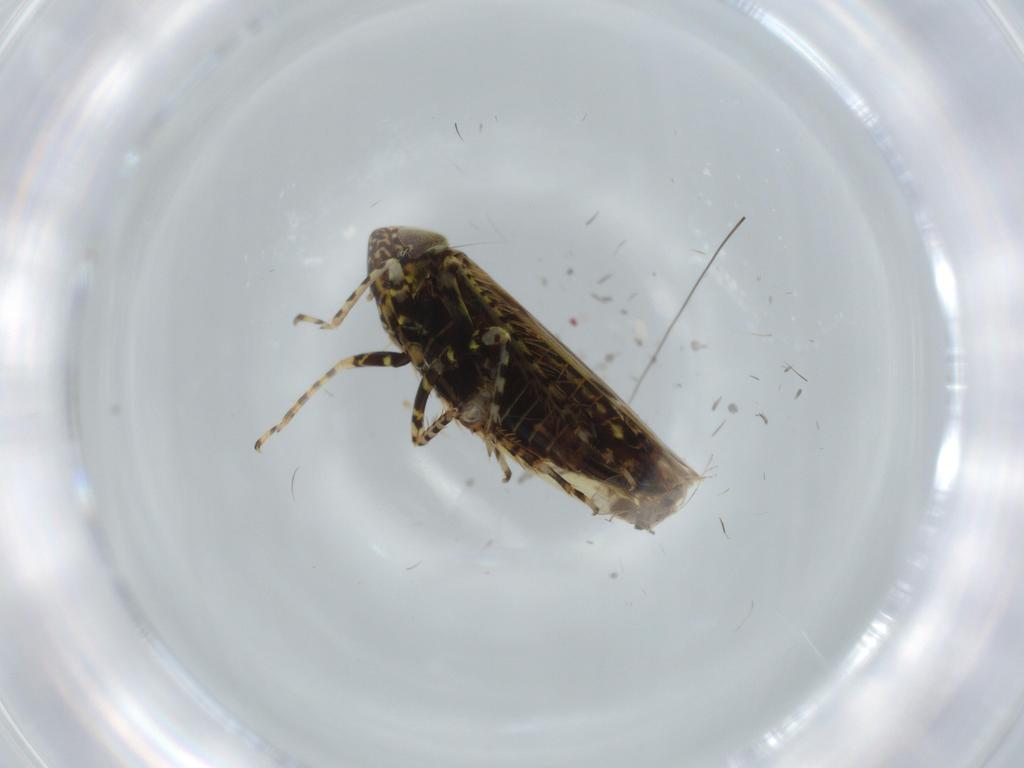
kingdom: Animalia
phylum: Arthropoda
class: Insecta
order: Hemiptera
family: Cicadellidae
